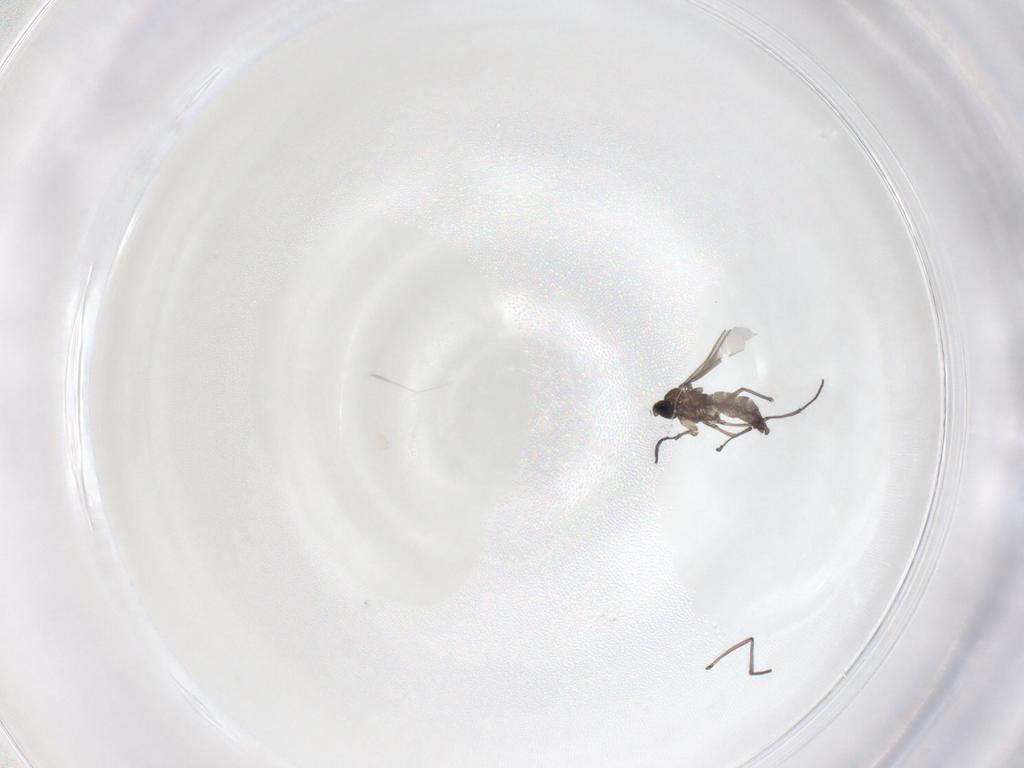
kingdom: Animalia
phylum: Arthropoda
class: Insecta
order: Diptera
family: Sciaridae
